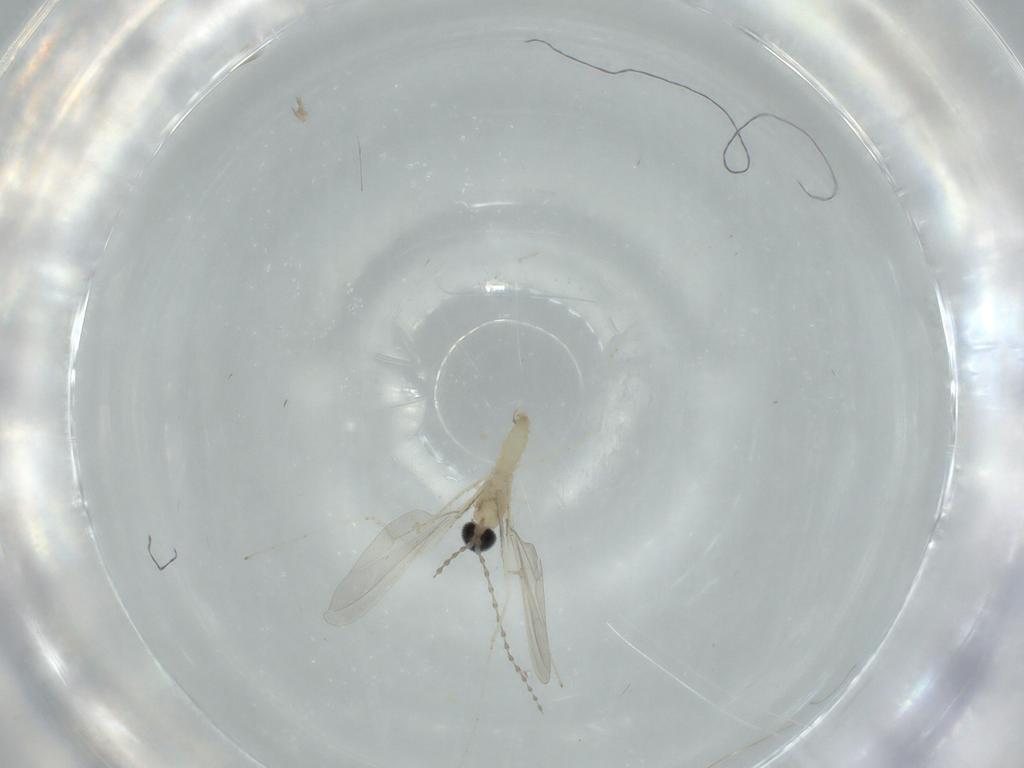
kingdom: Animalia
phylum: Arthropoda
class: Insecta
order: Diptera
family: Cecidomyiidae
